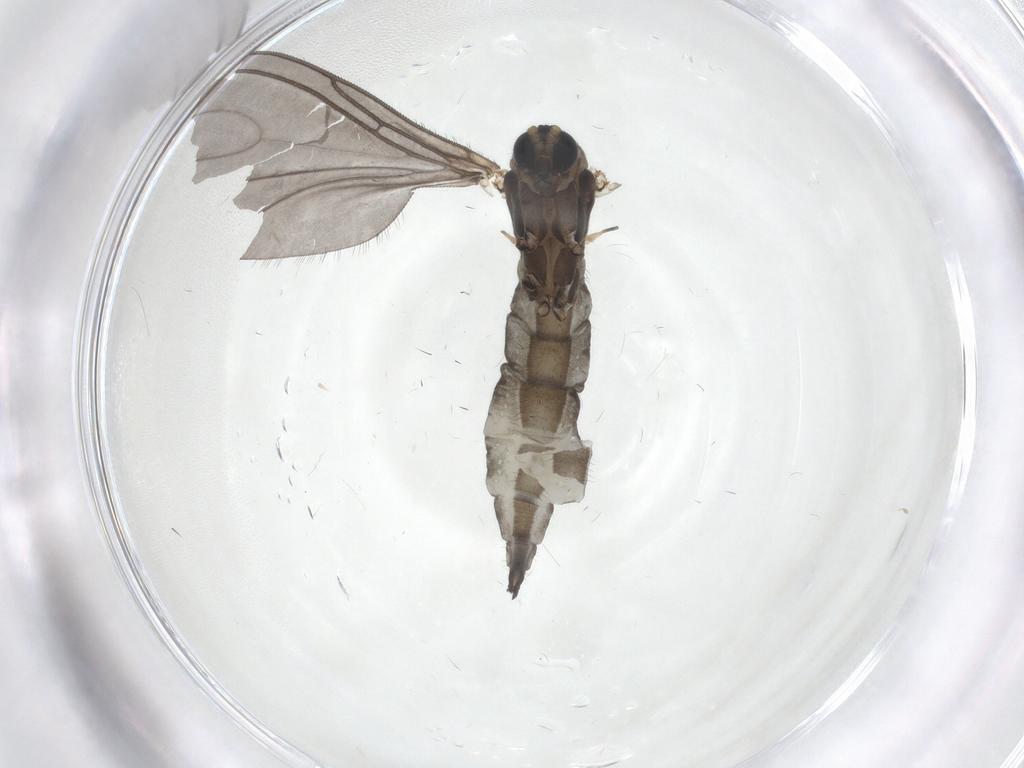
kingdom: Animalia
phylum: Arthropoda
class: Insecta
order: Diptera
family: Sciaridae
